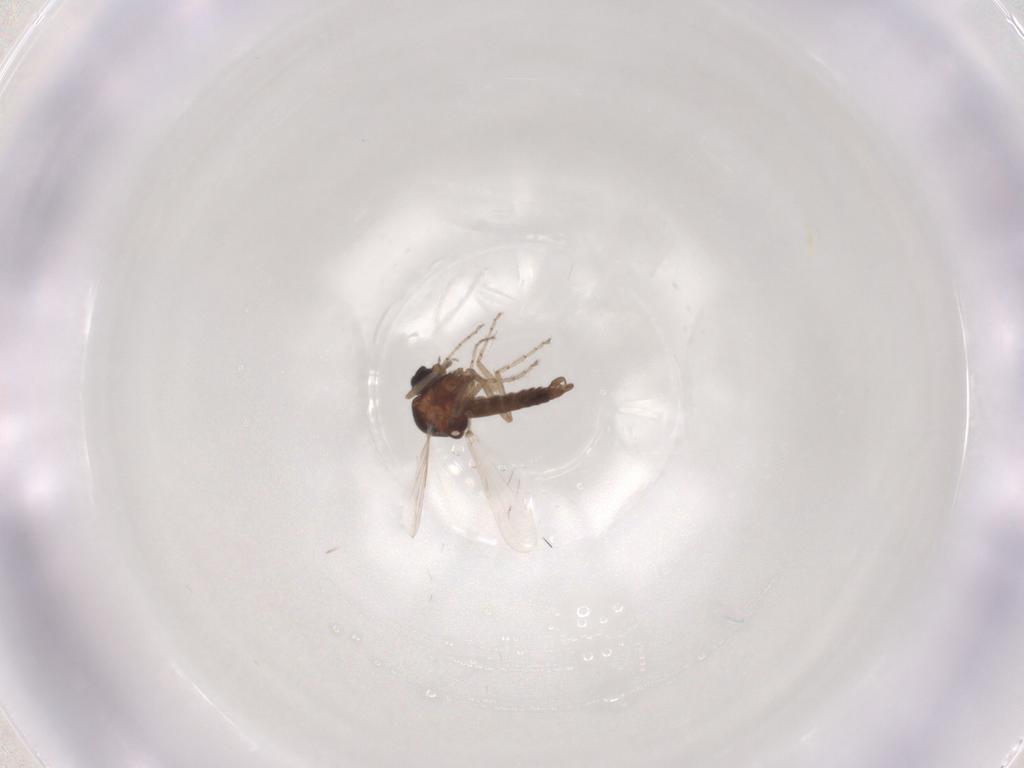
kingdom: Animalia
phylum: Arthropoda
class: Insecta
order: Diptera
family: Ceratopogonidae
